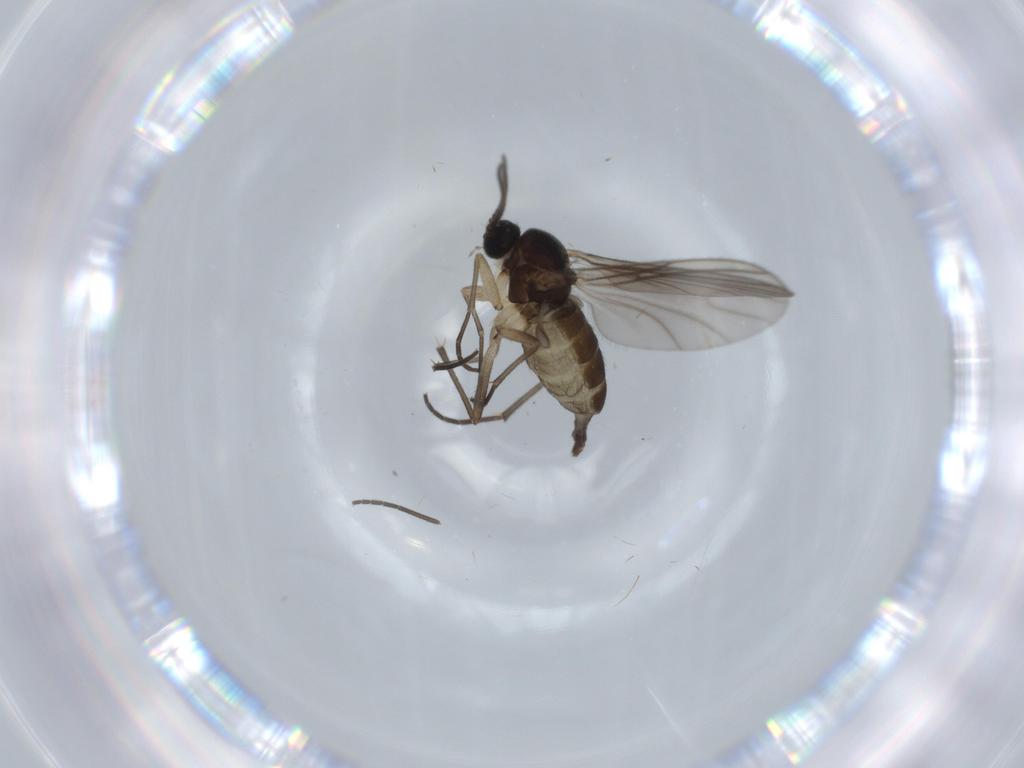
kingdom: Animalia
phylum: Arthropoda
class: Insecta
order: Diptera
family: Sciaridae
